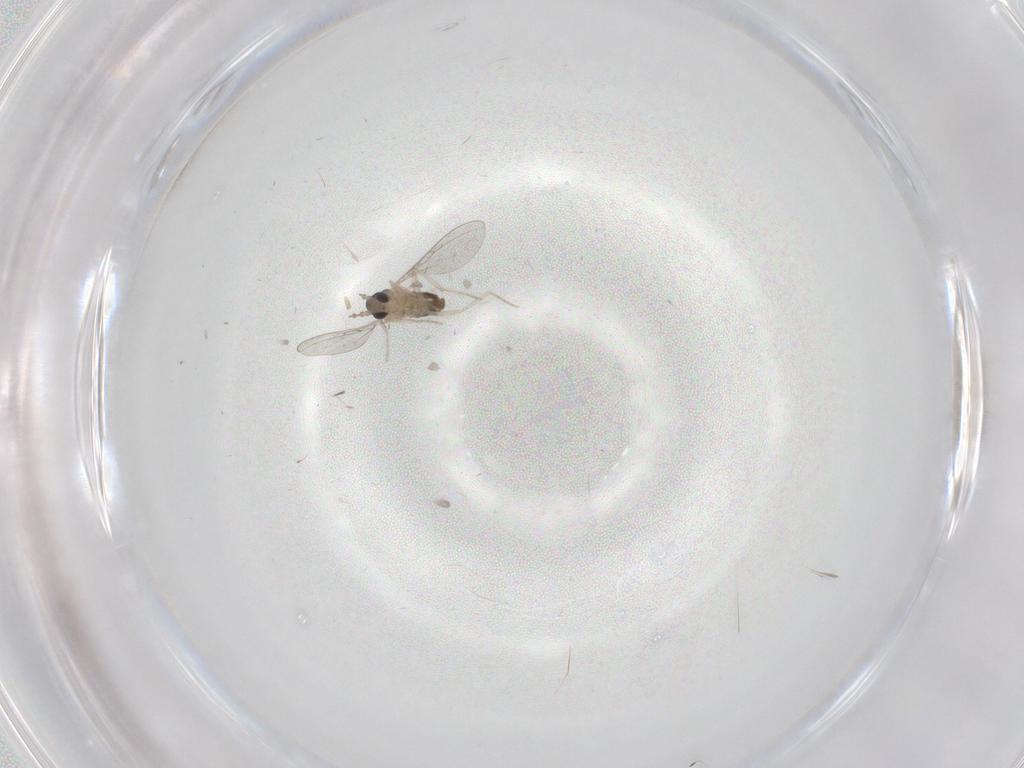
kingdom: Animalia
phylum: Arthropoda
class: Insecta
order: Diptera
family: Cecidomyiidae
